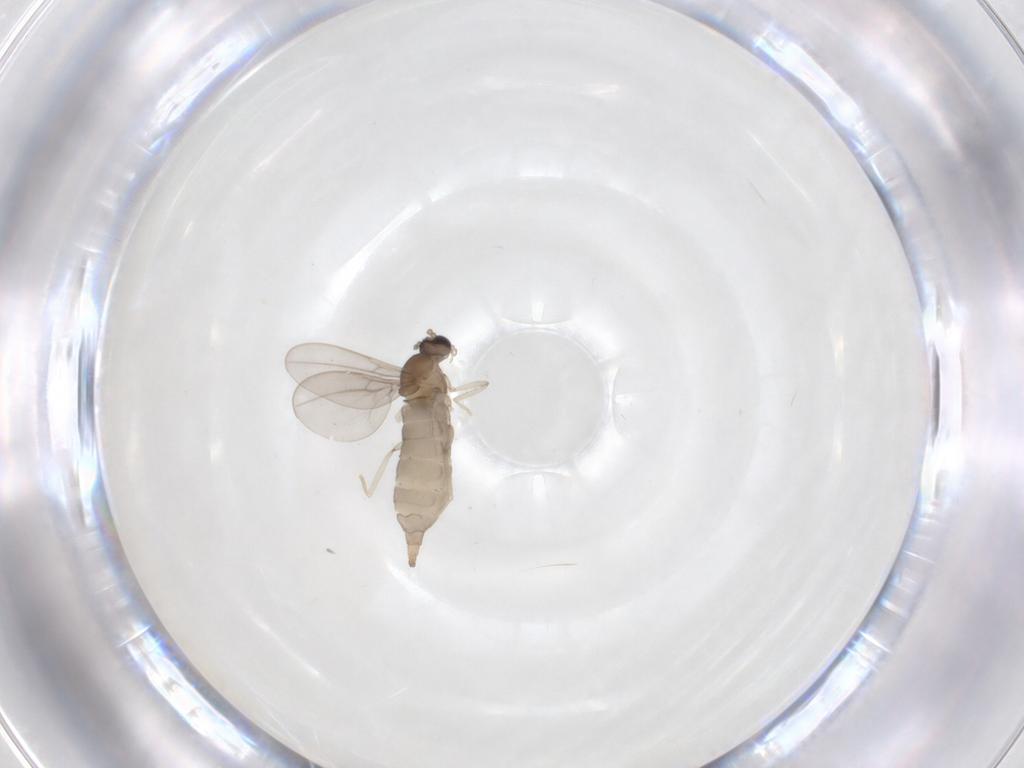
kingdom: Animalia
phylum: Arthropoda
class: Insecta
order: Diptera
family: Cecidomyiidae
